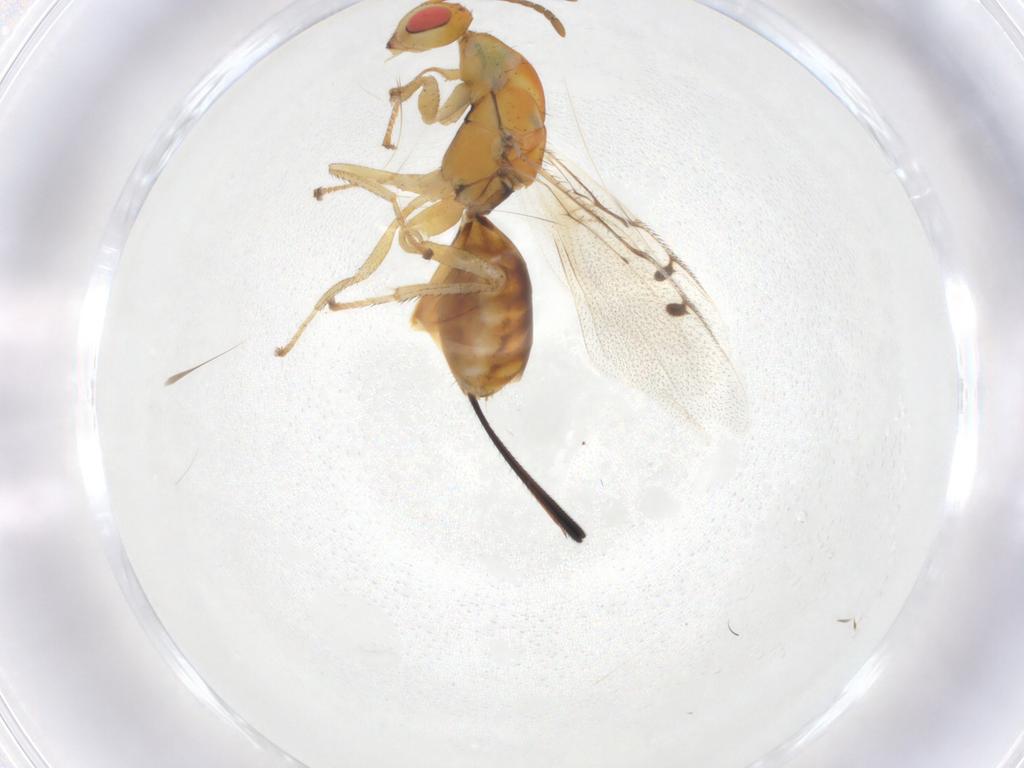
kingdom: Animalia
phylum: Arthropoda
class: Insecta
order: Hymenoptera
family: Megastigmidae
